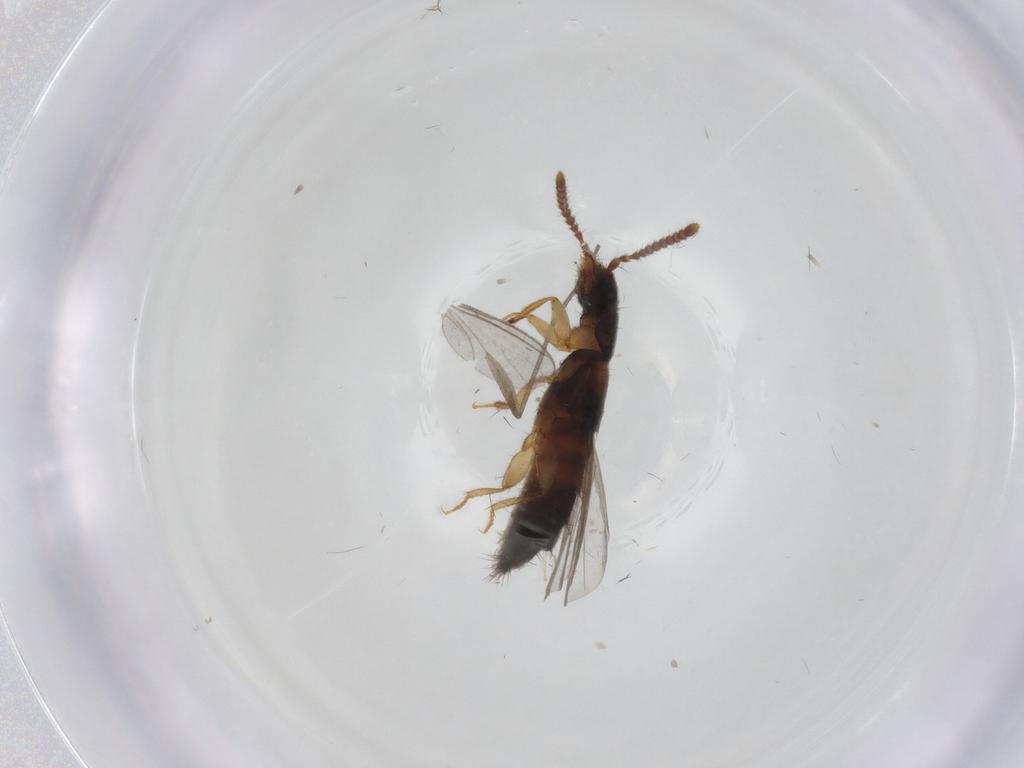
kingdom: Animalia
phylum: Arthropoda
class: Insecta
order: Coleoptera
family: Staphylinidae
